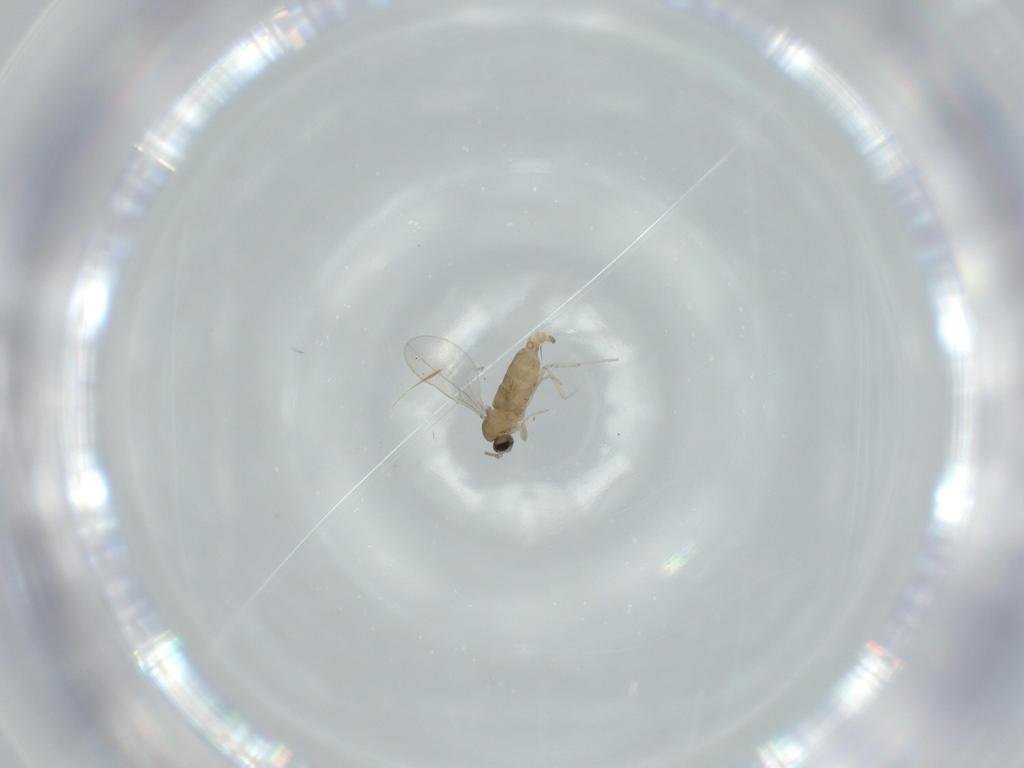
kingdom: Animalia
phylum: Arthropoda
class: Insecta
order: Diptera
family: Cecidomyiidae
